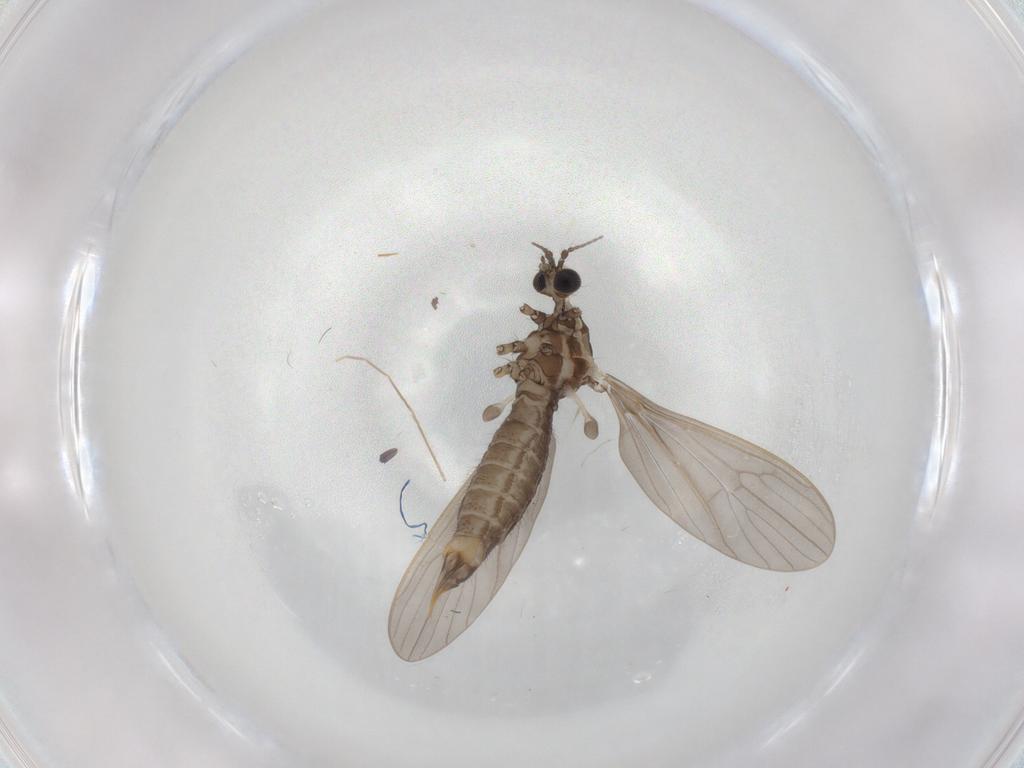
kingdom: Animalia
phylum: Arthropoda
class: Insecta
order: Diptera
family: Limoniidae
